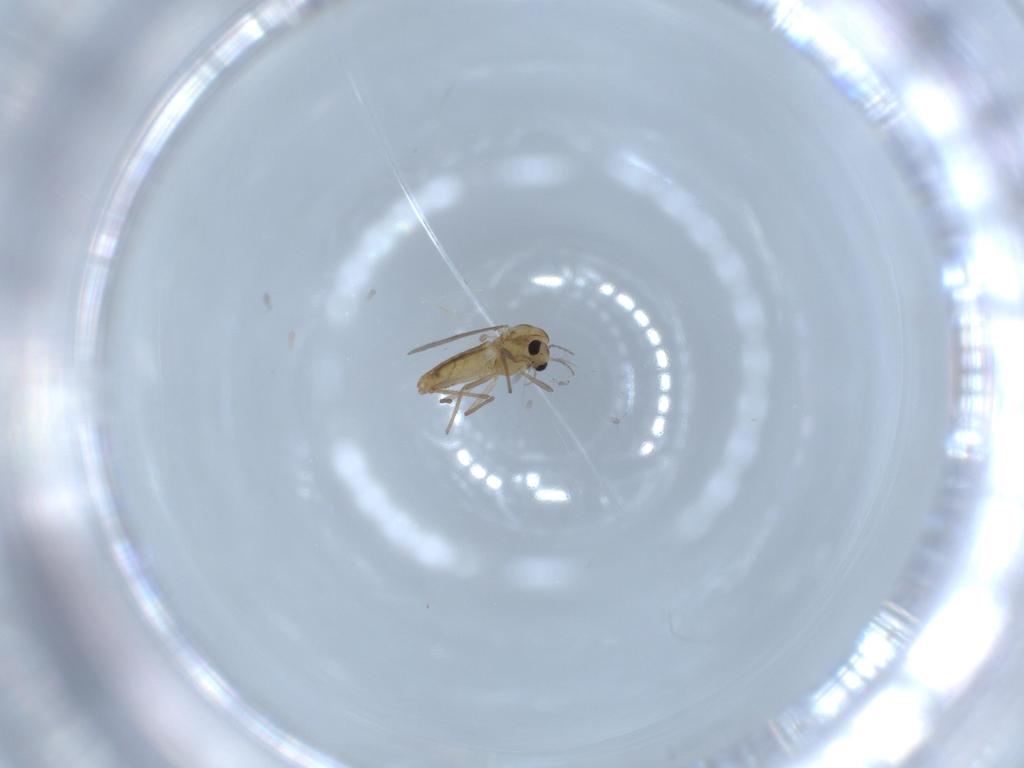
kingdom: Animalia
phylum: Arthropoda
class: Insecta
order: Diptera
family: Chironomidae
